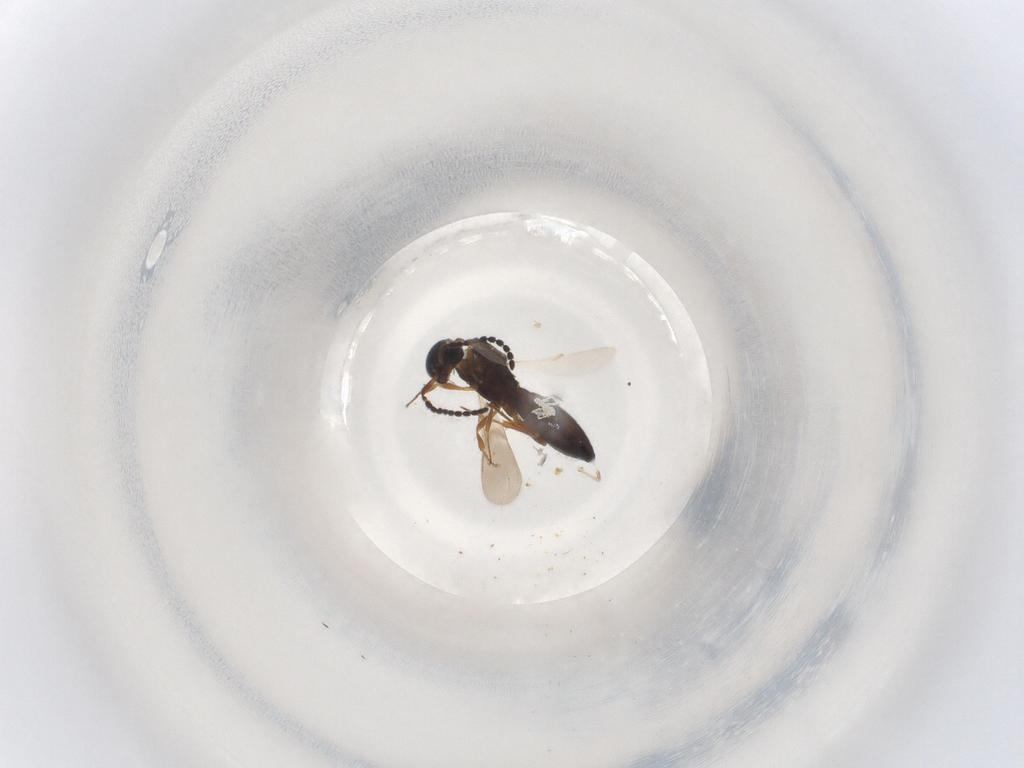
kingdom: Animalia
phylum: Arthropoda
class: Insecta
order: Hymenoptera
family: Scelionidae
